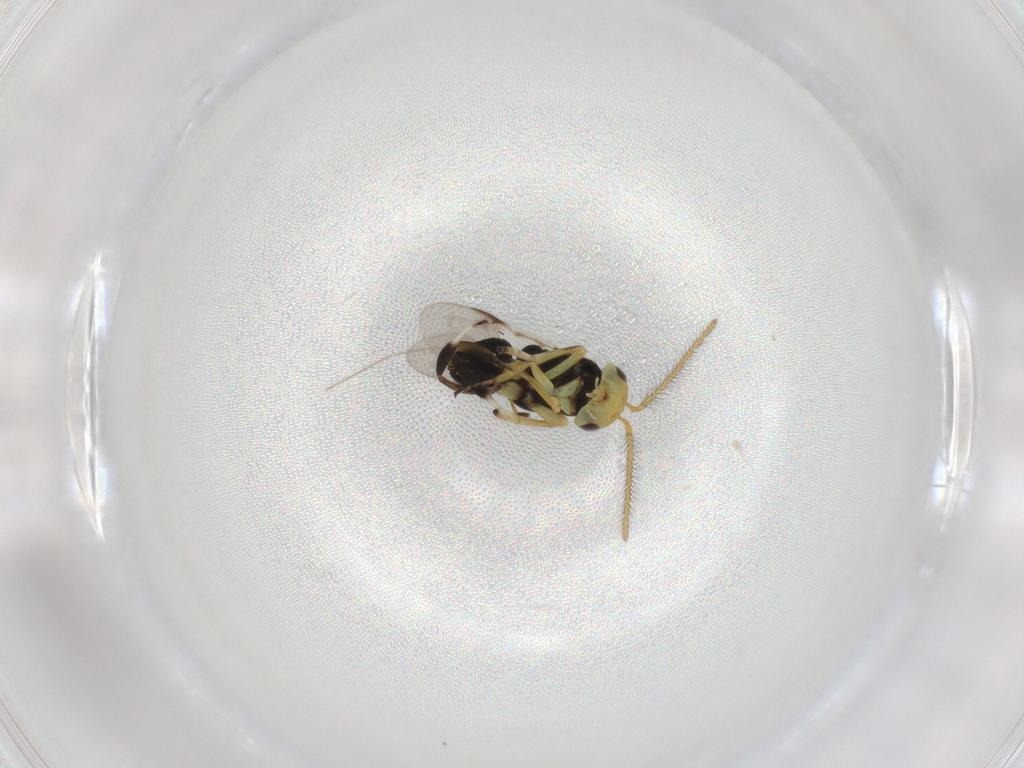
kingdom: Animalia
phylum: Arthropoda
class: Insecta
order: Hymenoptera
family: Encyrtidae
